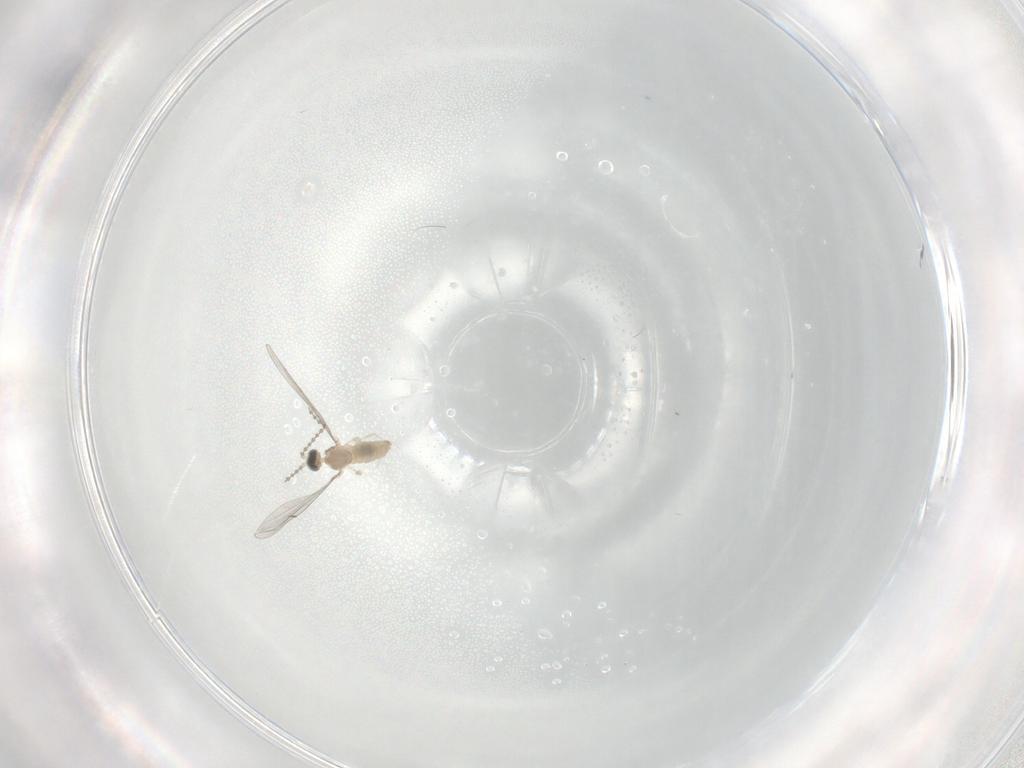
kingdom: Animalia
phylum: Arthropoda
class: Insecta
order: Diptera
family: Cecidomyiidae
